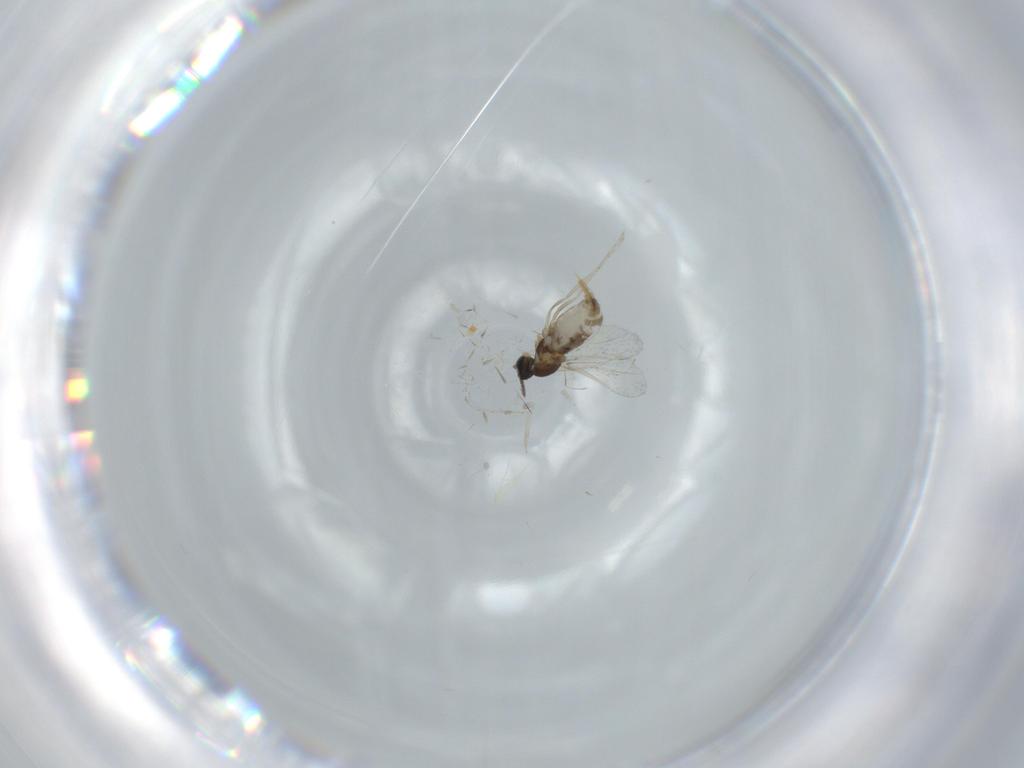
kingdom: Animalia
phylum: Arthropoda
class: Insecta
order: Diptera
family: Cecidomyiidae
